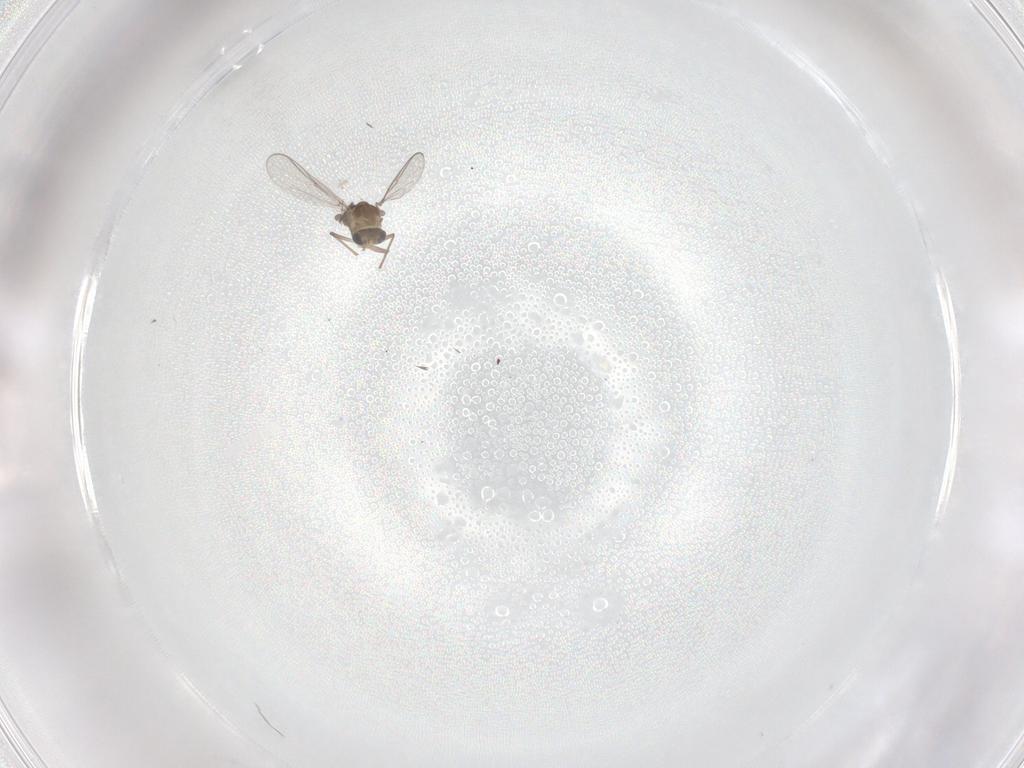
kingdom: Animalia
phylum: Arthropoda
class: Insecta
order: Diptera
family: Chironomidae
